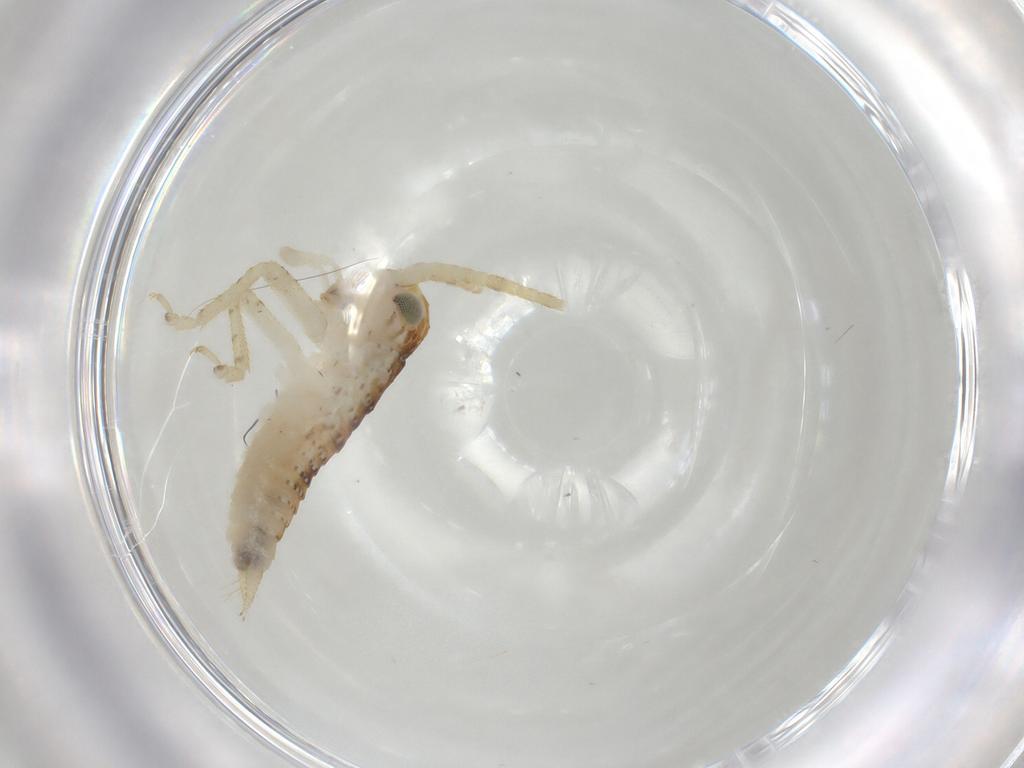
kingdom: Animalia
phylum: Arthropoda
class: Insecta
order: Orthoptera
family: Gryllidae
